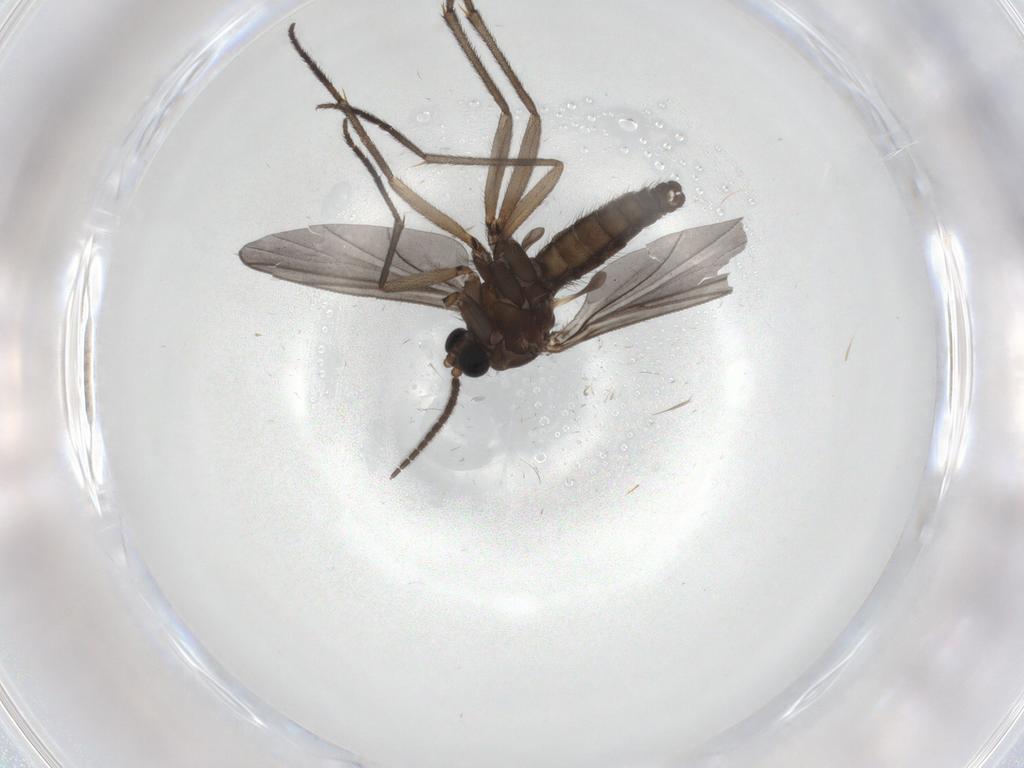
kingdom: Animalia
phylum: Arthropoda
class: Insecta
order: Diptera
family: Sciaridae
